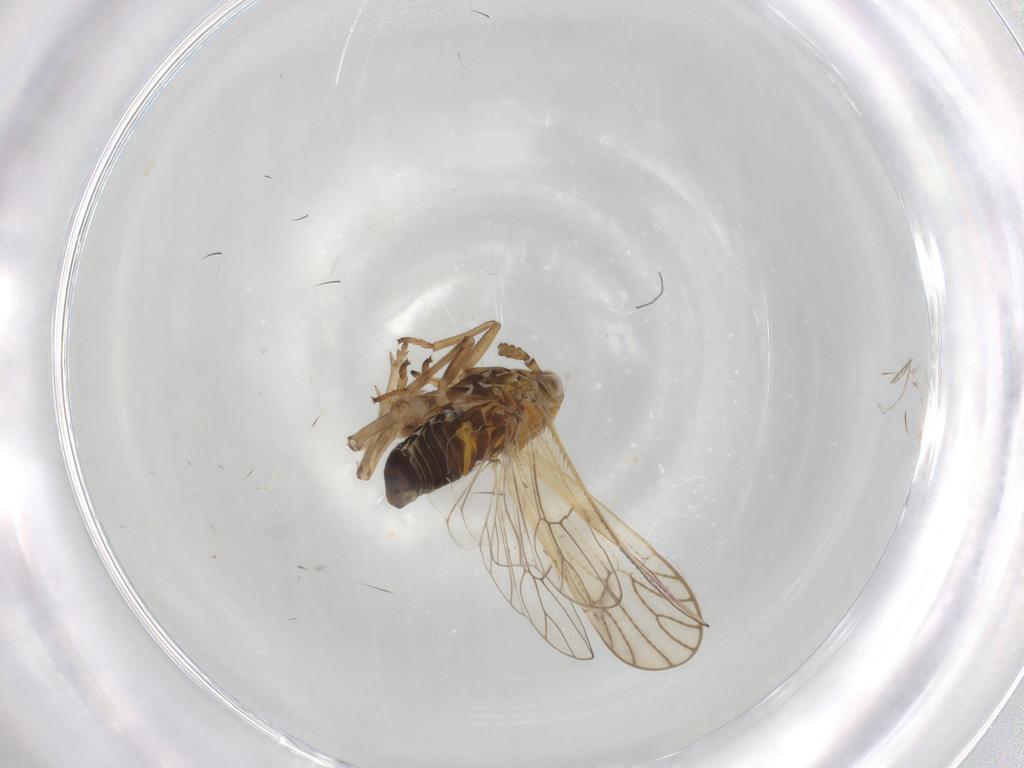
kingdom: Animalia
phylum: Arthropoda
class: Insecta
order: Hemiptera
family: Delphacidae
